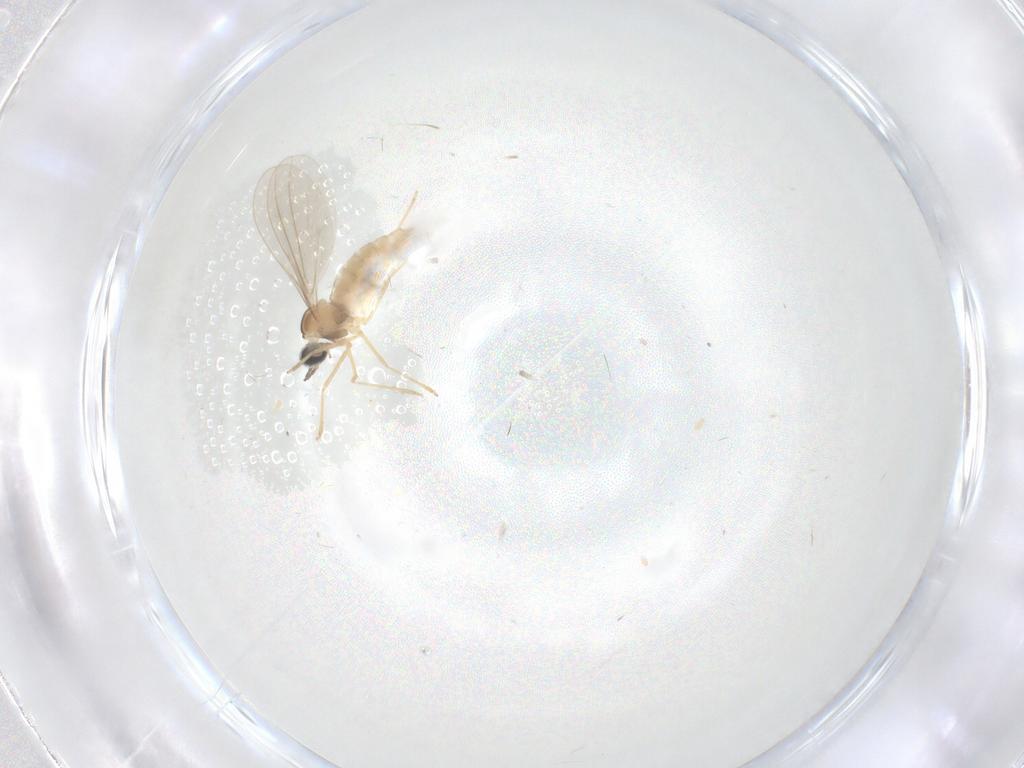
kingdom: Animalia
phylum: Arthropoda
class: Insecta
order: Diptera
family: Cecidomyiidae
